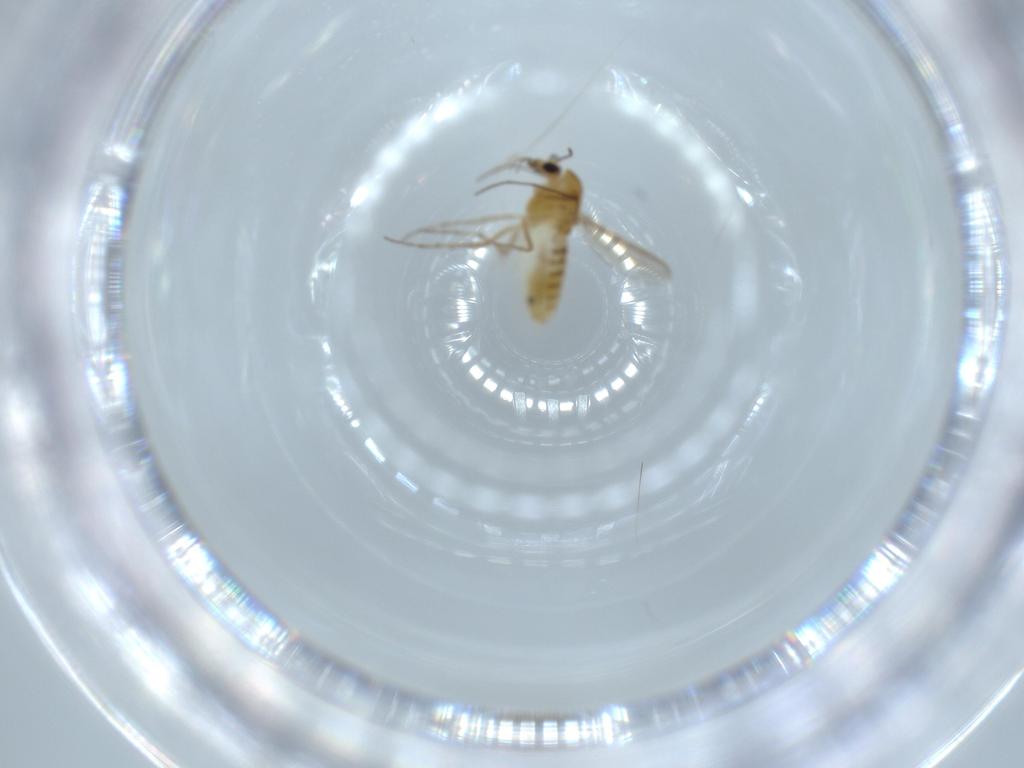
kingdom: Animalia
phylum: Arthropoda
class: Insecta
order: Diptera
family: Chironomidae
